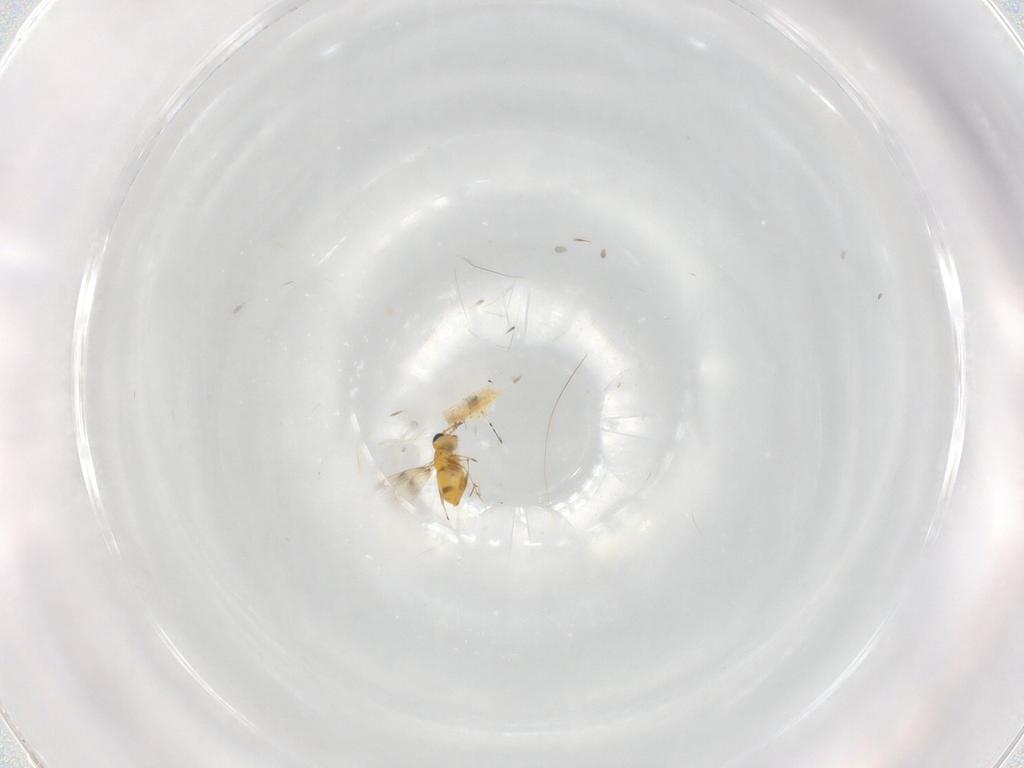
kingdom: Animalia
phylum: Arthropoda
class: Insecta
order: Hymenoptera
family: Aphelinidae
